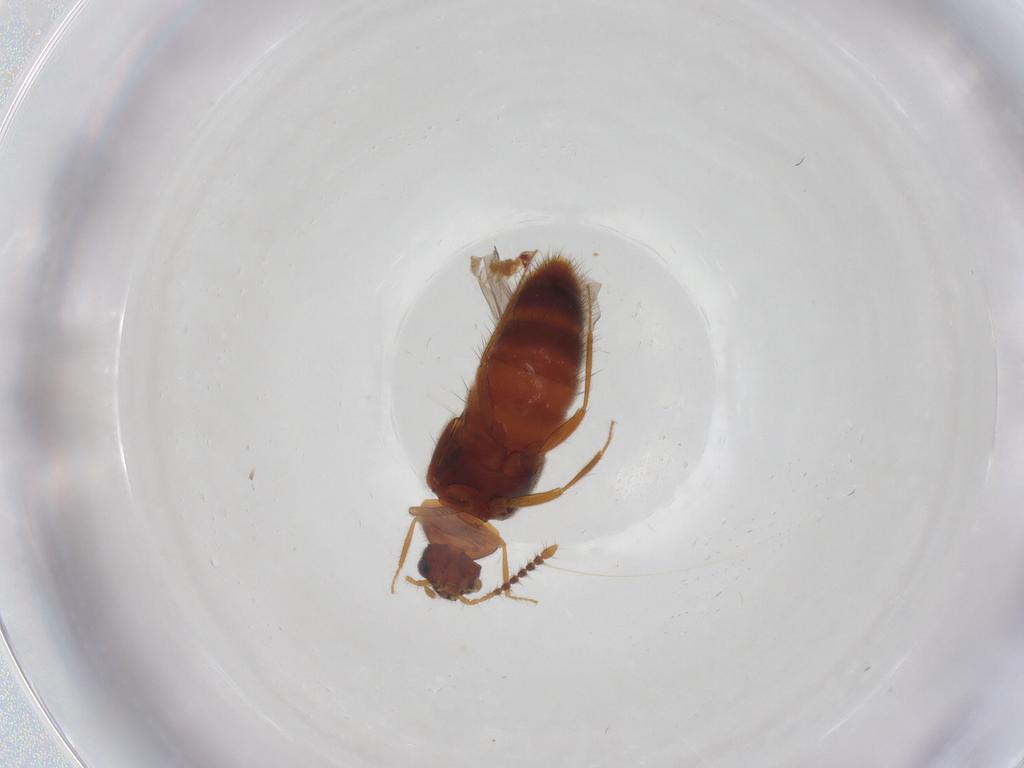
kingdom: Animalia
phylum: Arthropoda
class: Insecta
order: Coleoptera
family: Staphylinidae
